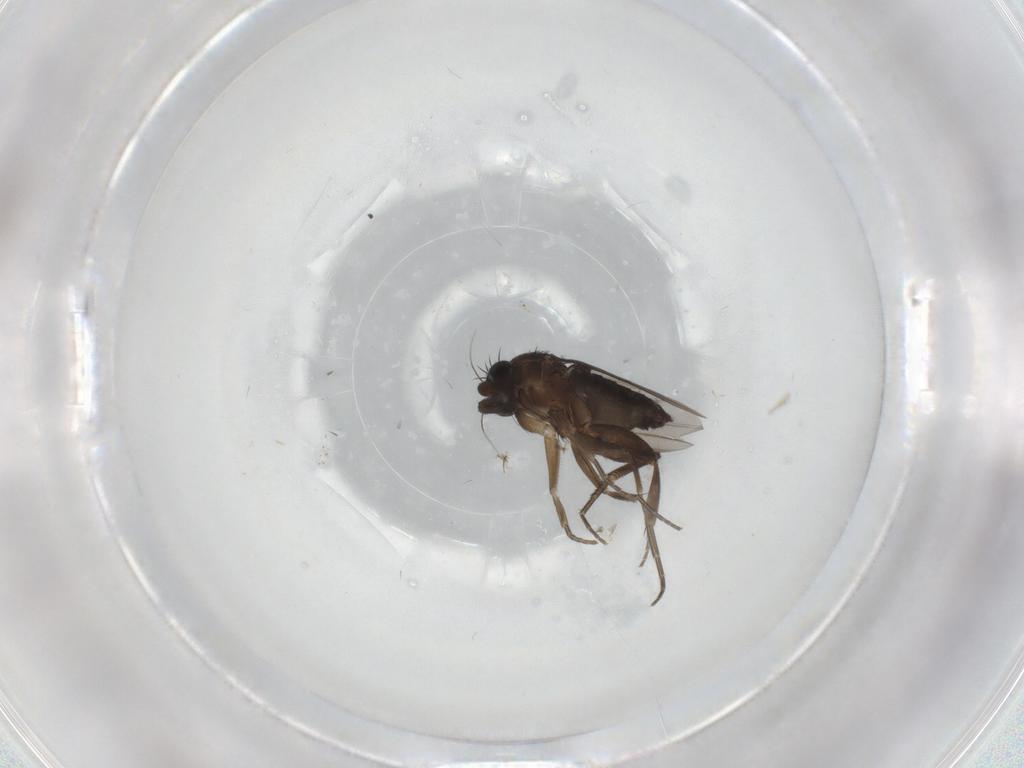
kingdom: Animalia
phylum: Arthropoda
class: Insecta
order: Diptera
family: Phoridae
